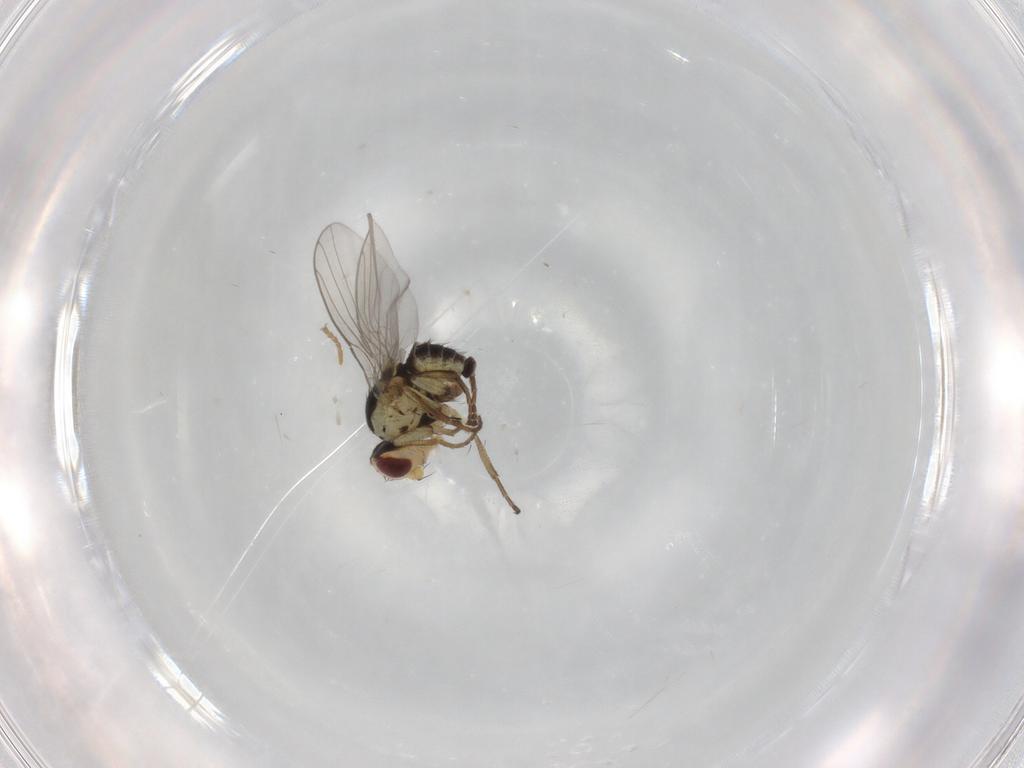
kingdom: Animalia
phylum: Arthropoda
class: Insecta
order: Diptera
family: Agromyzidae
